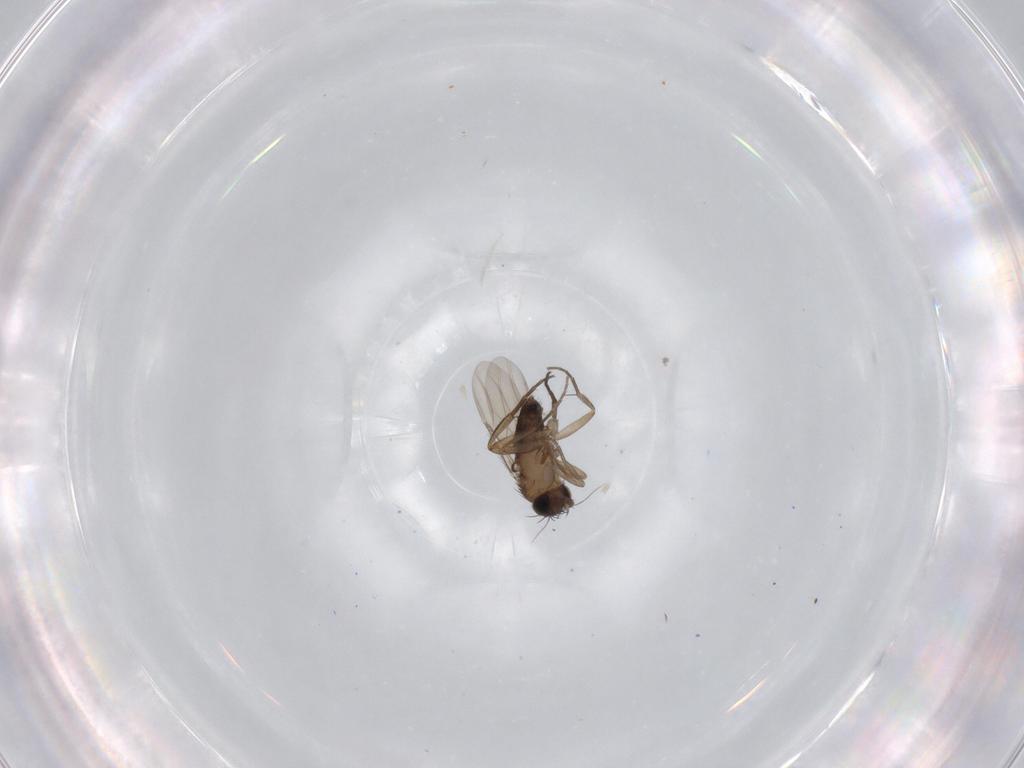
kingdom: Animalia
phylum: Arthropoda
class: Insecta
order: Diptera
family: Phoridae
